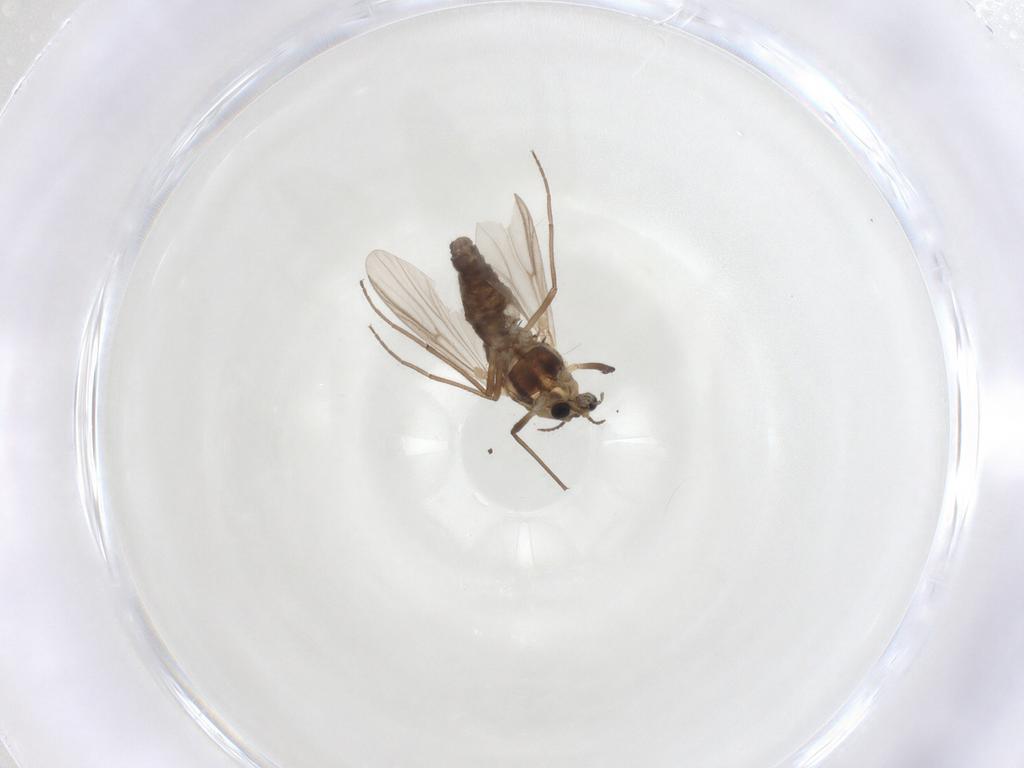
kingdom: Animalia
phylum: Arthropoda
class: Insecta
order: Diptera
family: Chironomidae
